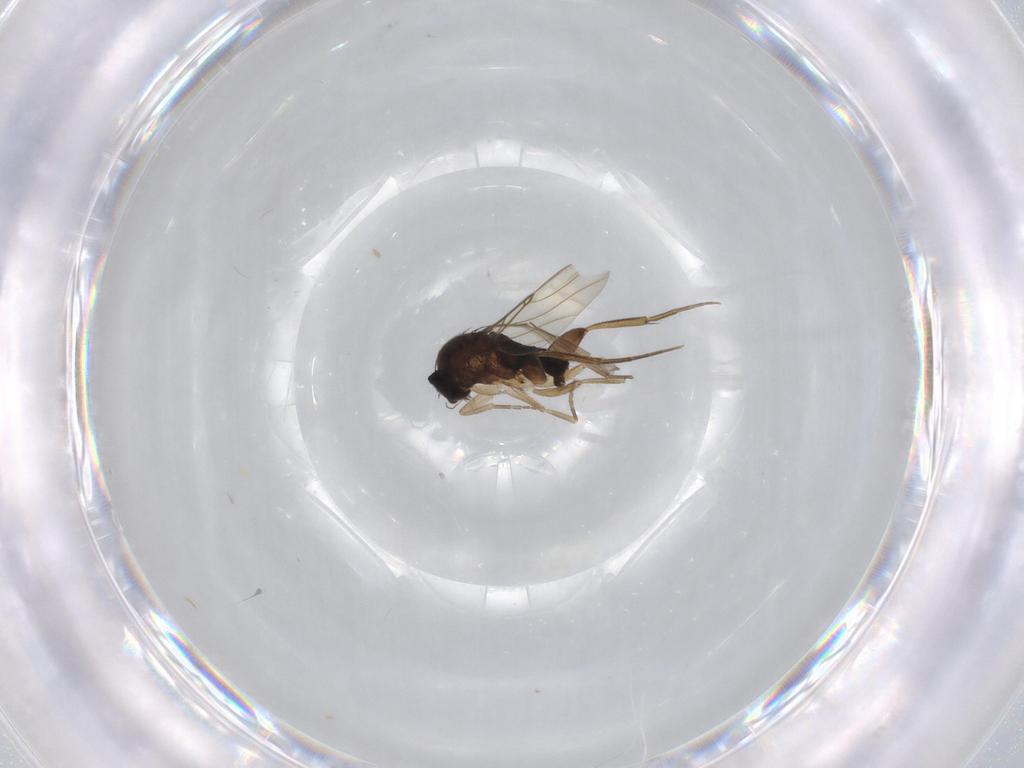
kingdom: Animalia
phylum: Arthropoda
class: Insecta
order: Diptera
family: Phoridae
